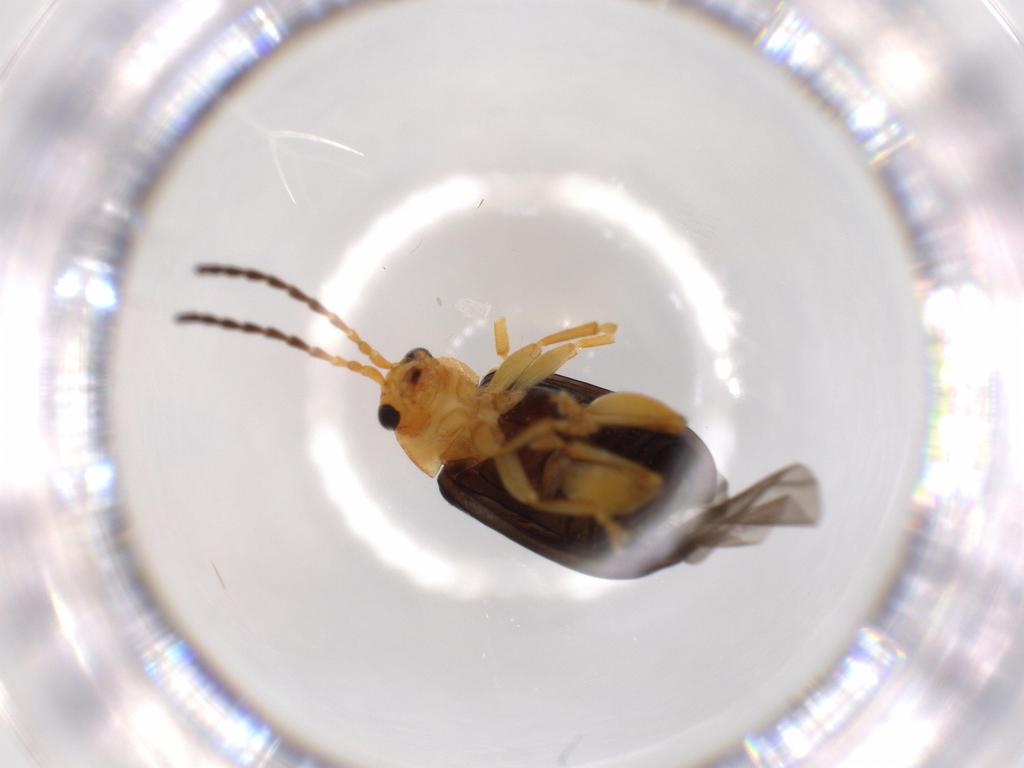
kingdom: Animalia
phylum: Arthropoda
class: Insecta
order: Coleoptera
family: Chrysomelidae
